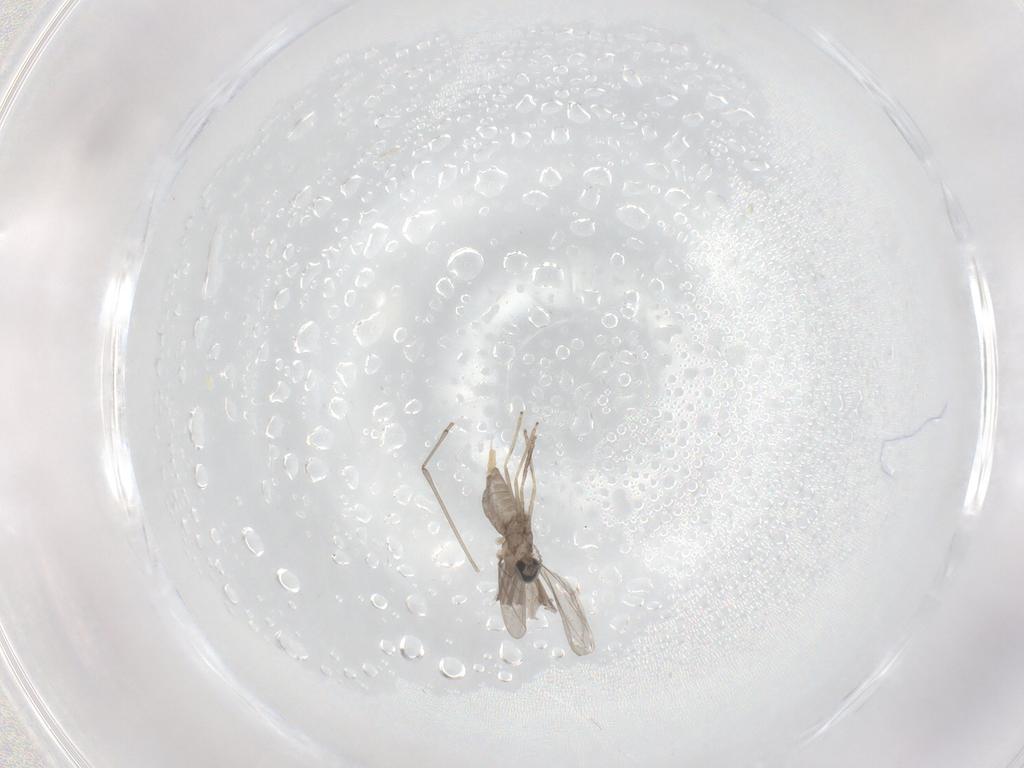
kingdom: Animalia
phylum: Arthropoda
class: Insecta
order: Diptera
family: Cecidomyiidae
